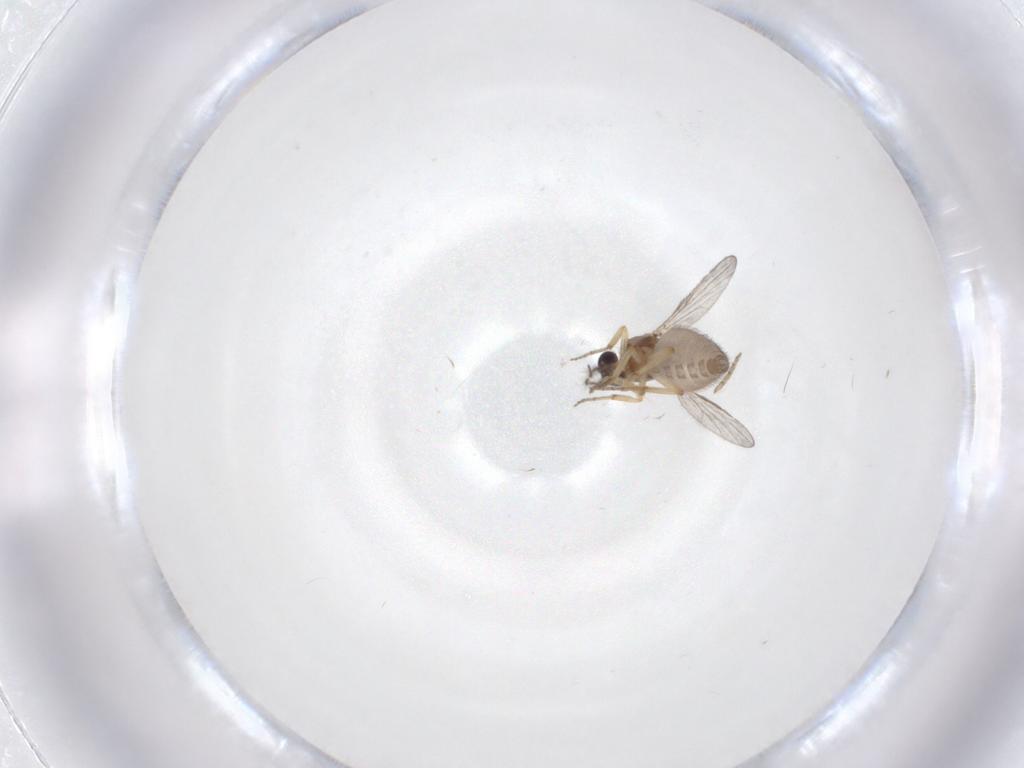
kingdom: Animalia
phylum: Arthropoda
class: Insecta
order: Diptera
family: Ceratopogonidae
